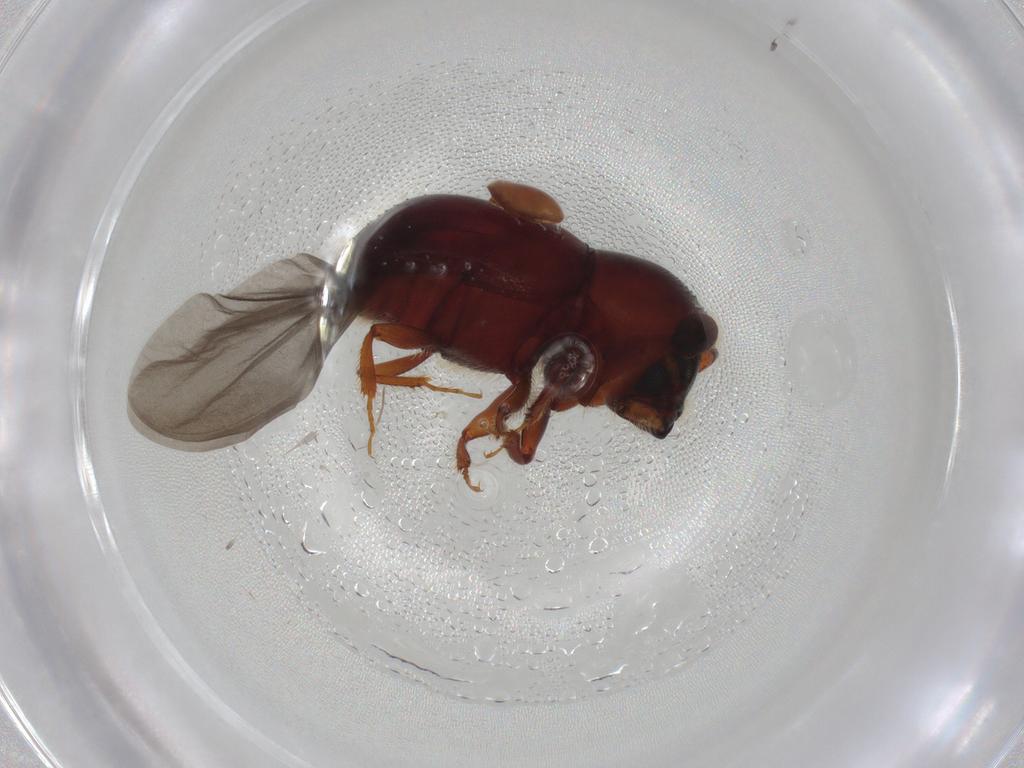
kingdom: Animalia
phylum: Arthropoda
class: Insecta
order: Coleoptera
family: Curculionidae
